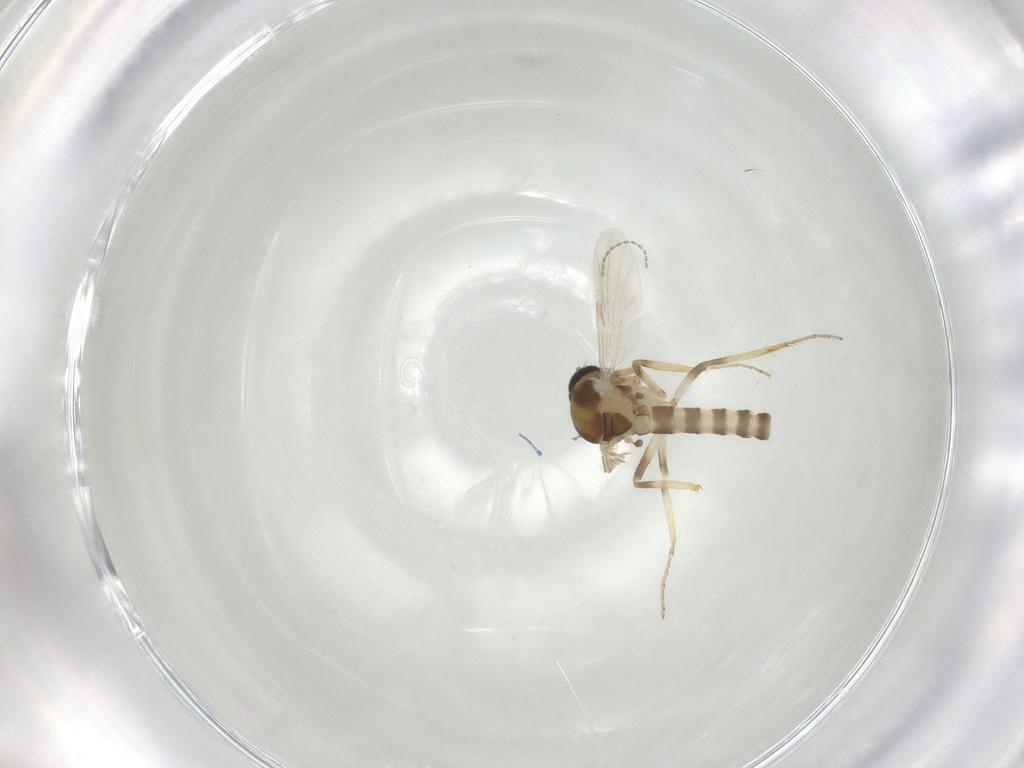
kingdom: Animalia
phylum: Arthropoda
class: Insecta
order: Diptera
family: Ceratopogonidae
